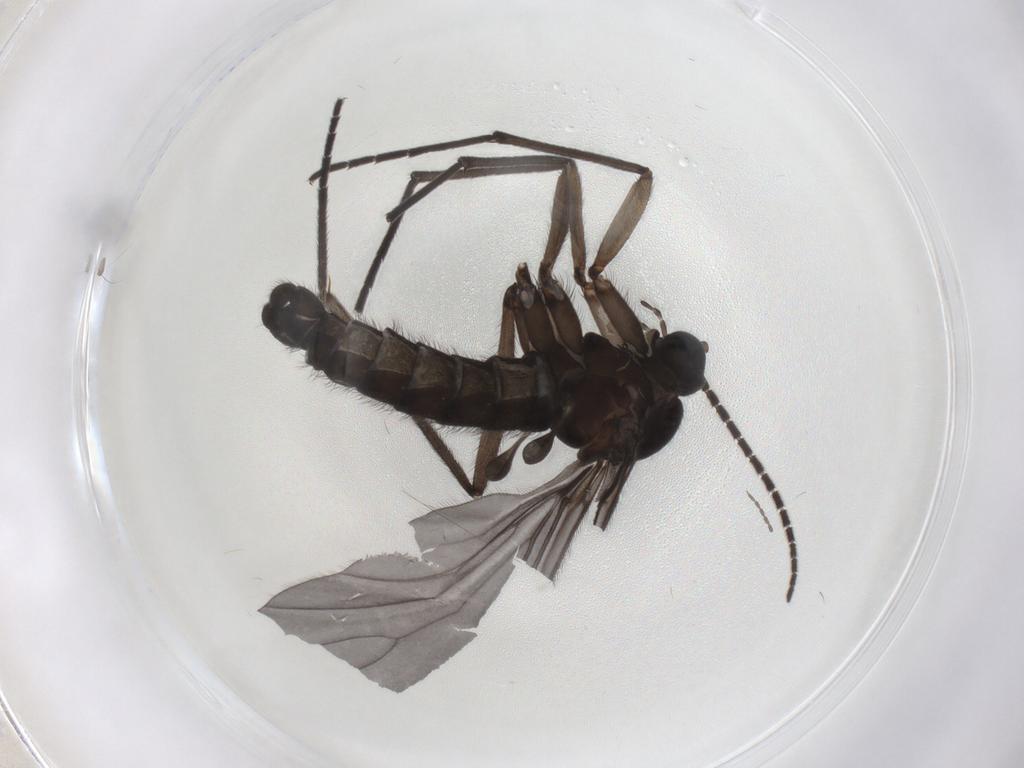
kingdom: Animalia
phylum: Arthropoda
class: Insecta
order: Diptera
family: Sciaridae
